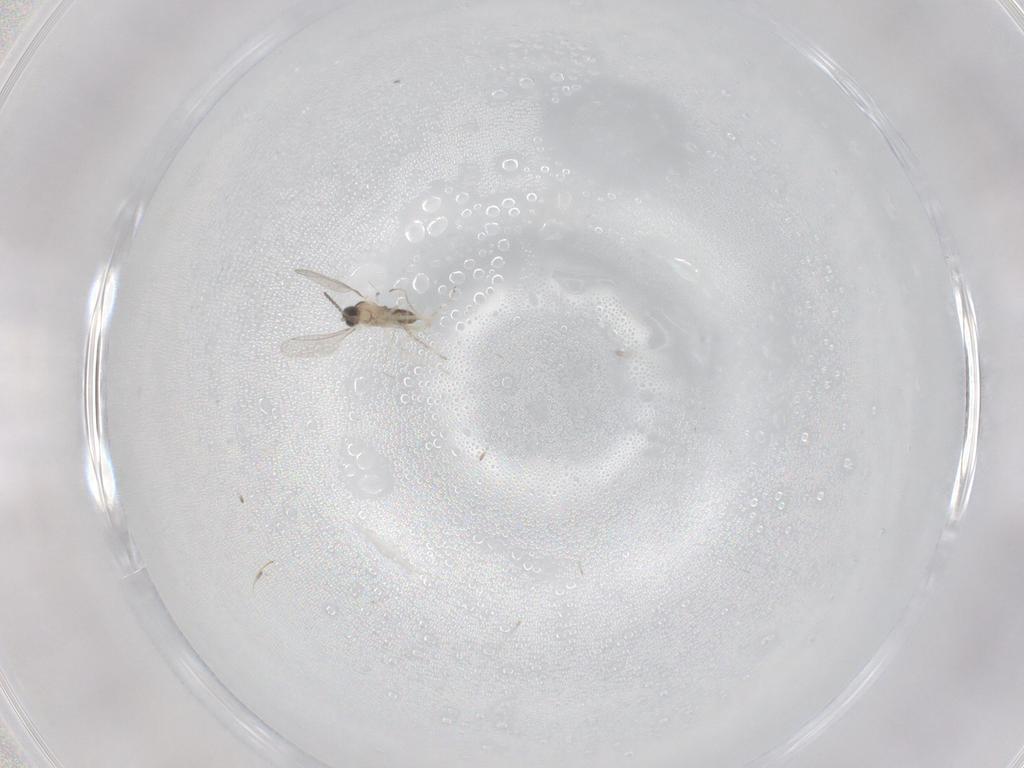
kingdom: Animalia
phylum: Arthropoda
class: Insecta
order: Diptera
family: Cecidomyiidae
